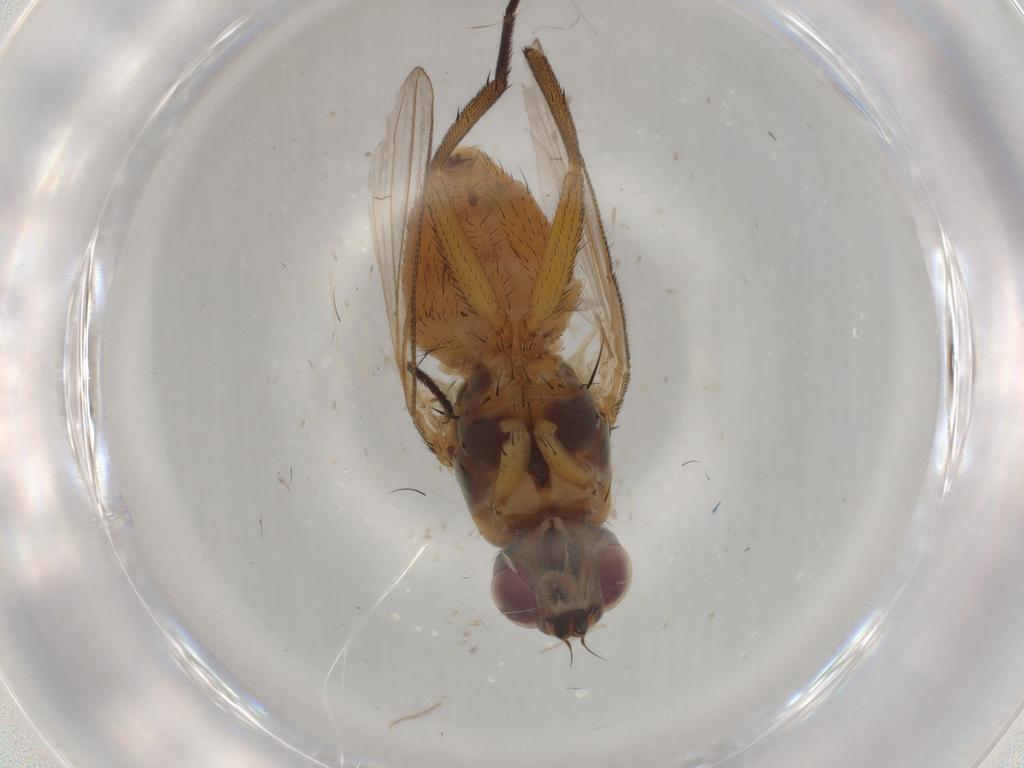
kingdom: Animalia
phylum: Arthropoda
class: Insecta
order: Diptera
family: Muscidae
